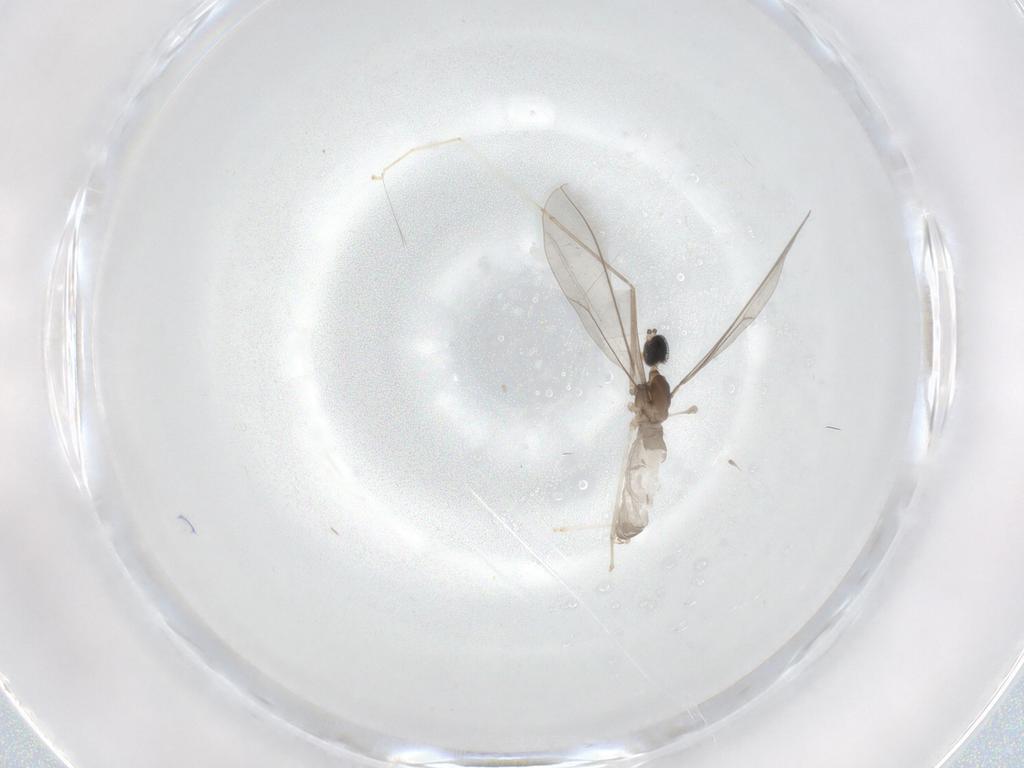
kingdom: Animalia
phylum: Arthropoda
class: Insecta
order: Diptera
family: Cecidomyiidae
